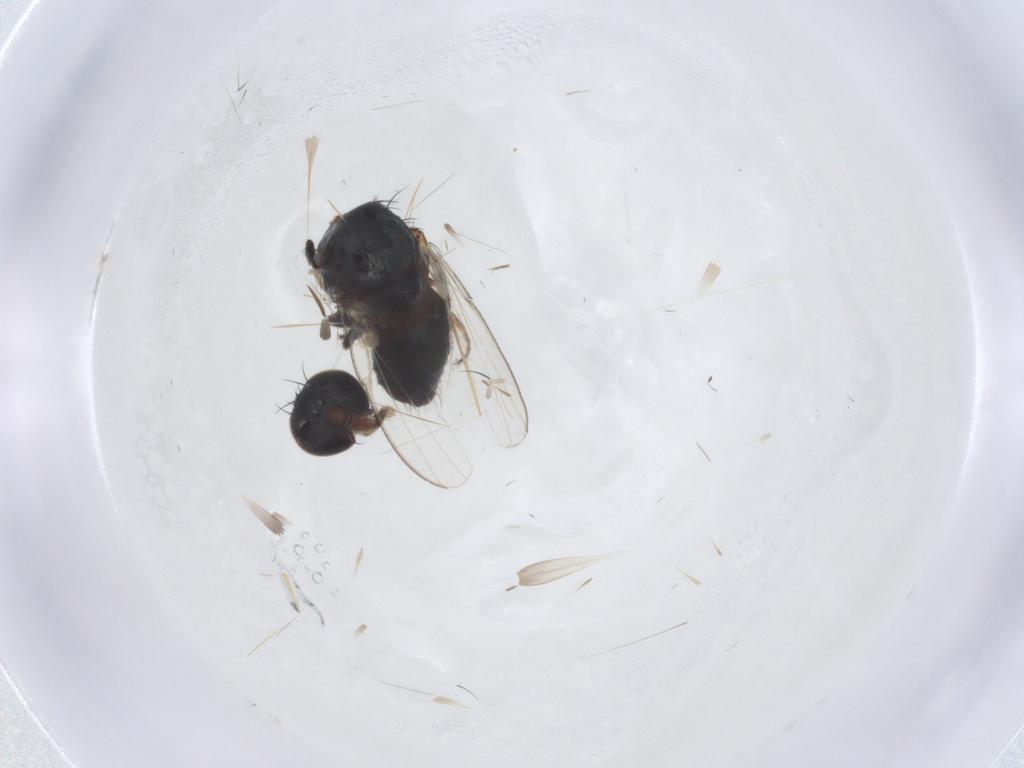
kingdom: Animalia
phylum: Arthropoda
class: Insecta
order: Diptera
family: Milichiidae
